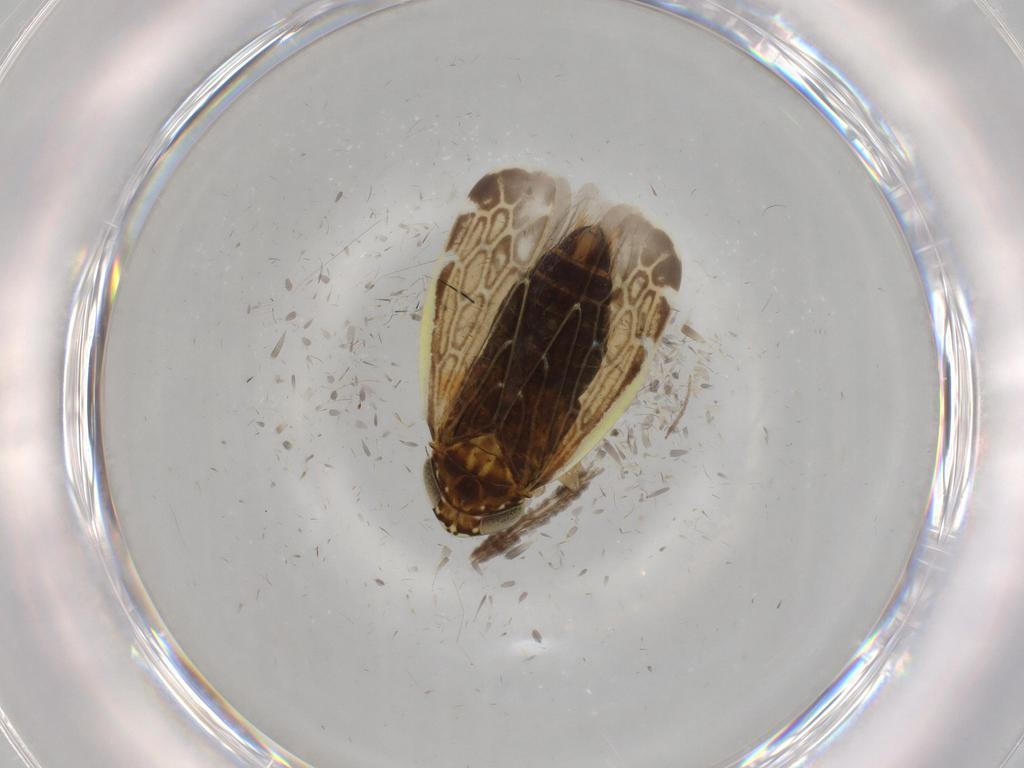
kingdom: Animalia
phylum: Arthropoda
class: Insecta
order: Hemiptera
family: Cicadellidae
